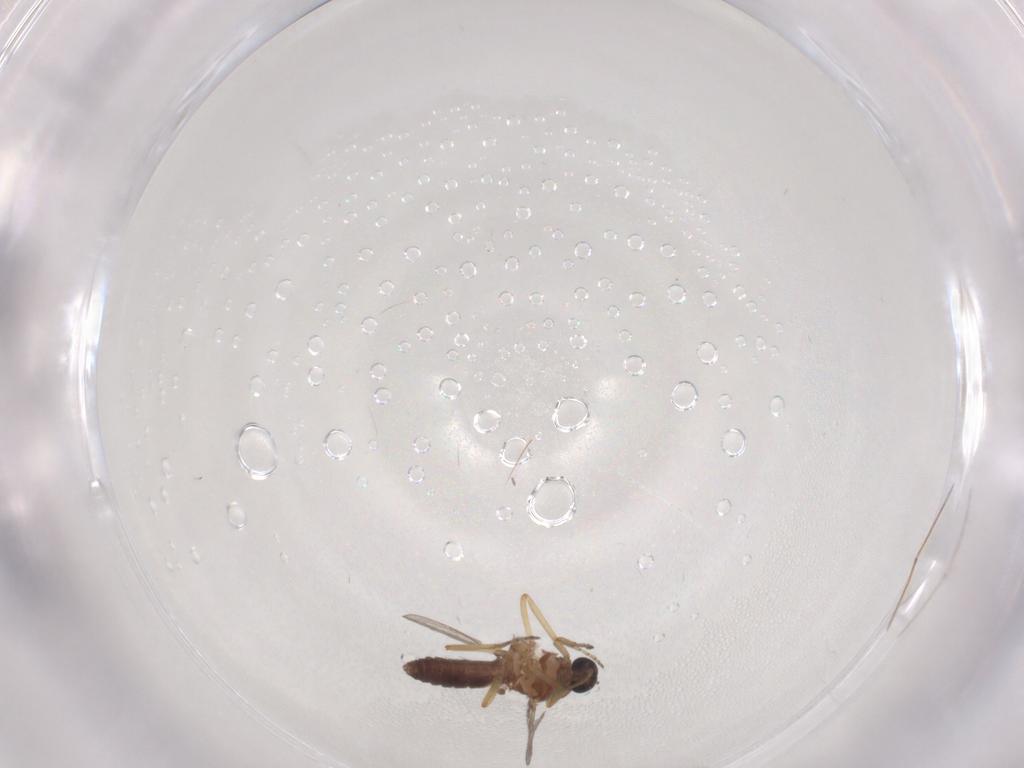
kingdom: Animalia
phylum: Arthropoda
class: Insecta
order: Diptera
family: Ceratopogonidae
